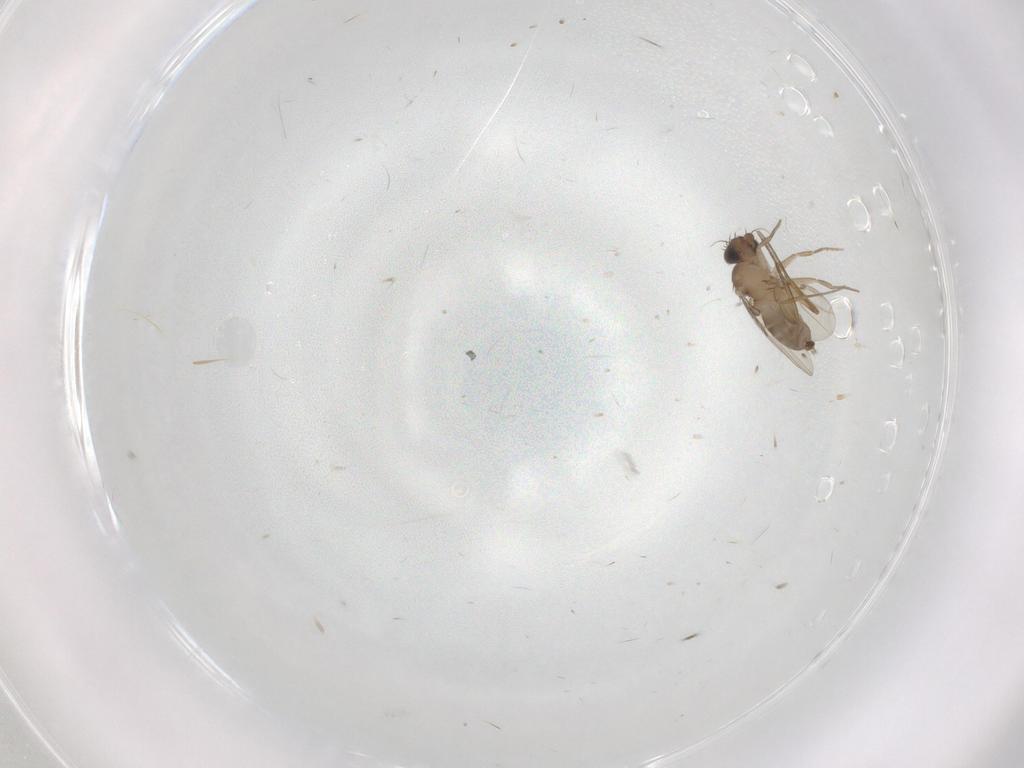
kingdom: Animalia
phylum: Arthropoda
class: Insecta
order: Diptera
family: Phoridae
